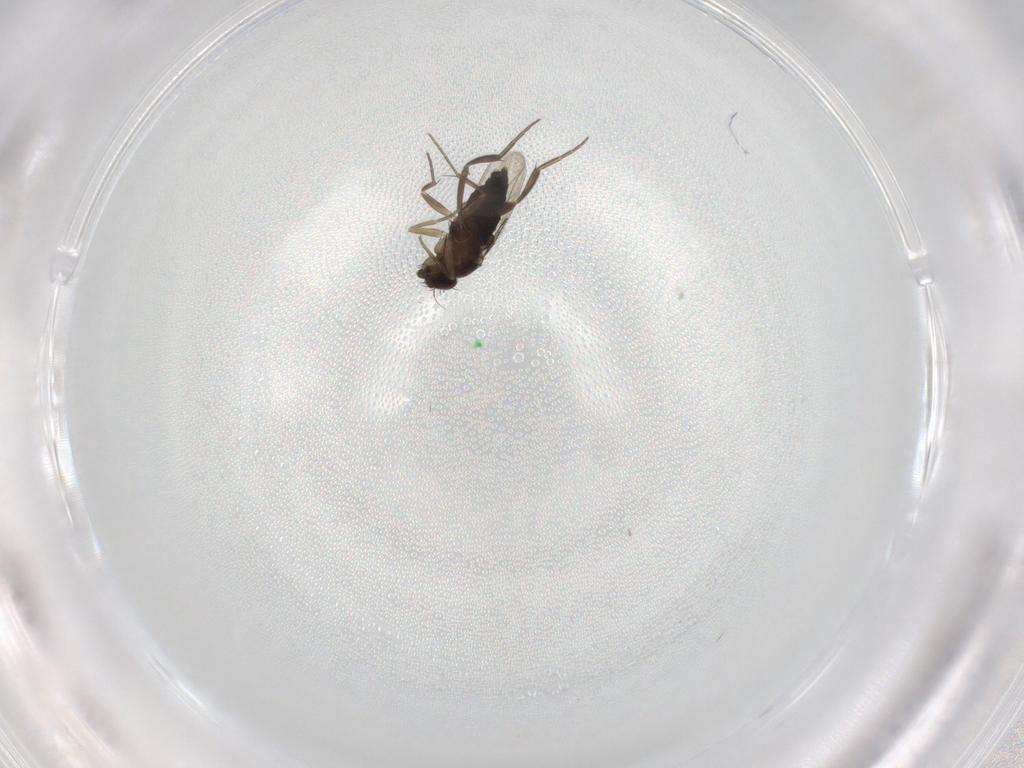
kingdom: Animalia
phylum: Arthropoda
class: Insecta
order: Diptera
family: Phoridae
